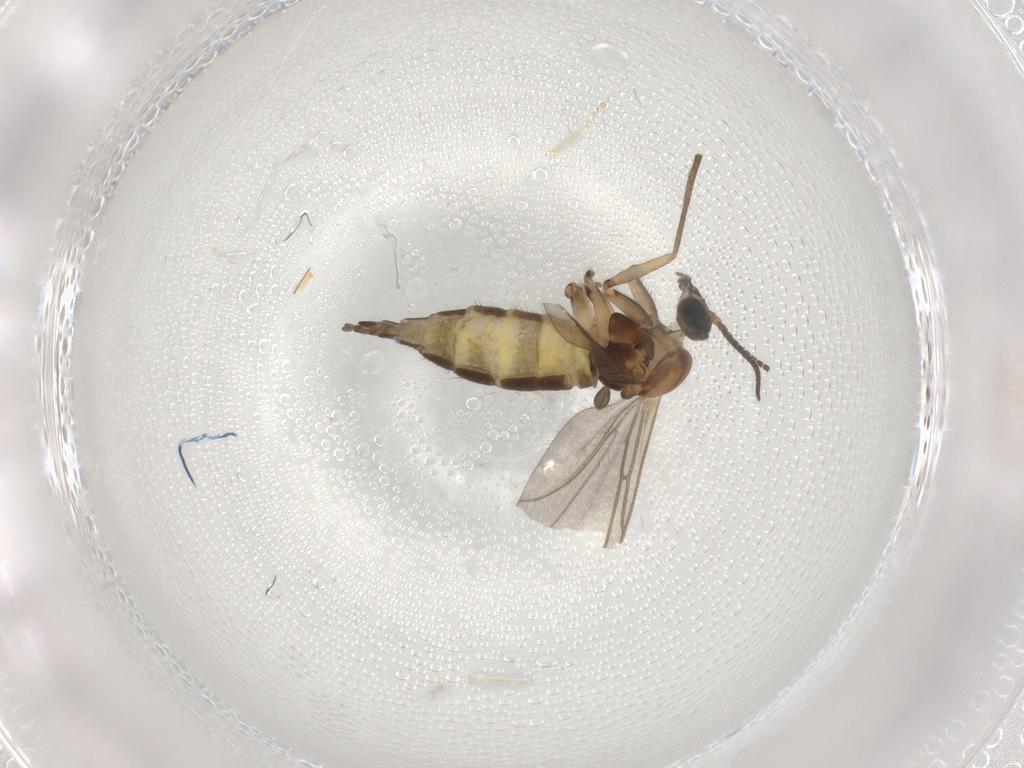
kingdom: Animalia
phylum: Arthropoda
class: Insecta
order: Diptera
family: Sciaridae
